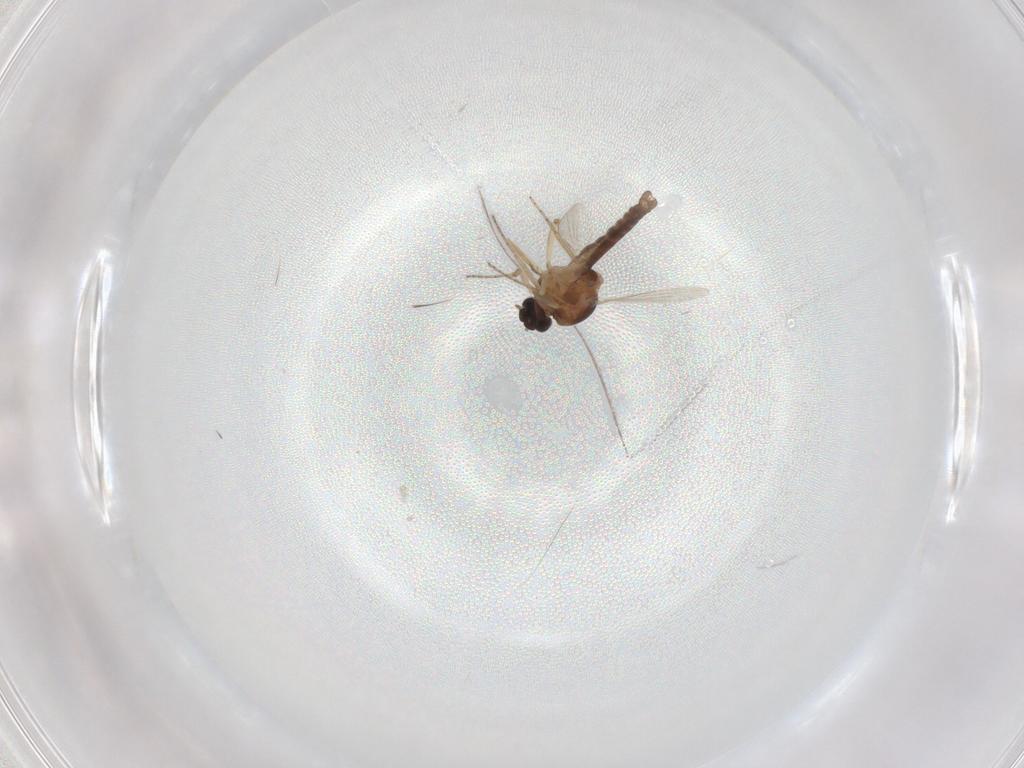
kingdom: Animalia
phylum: Arthropoda
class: Insecta
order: Diptera
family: Ceratopogonidae
